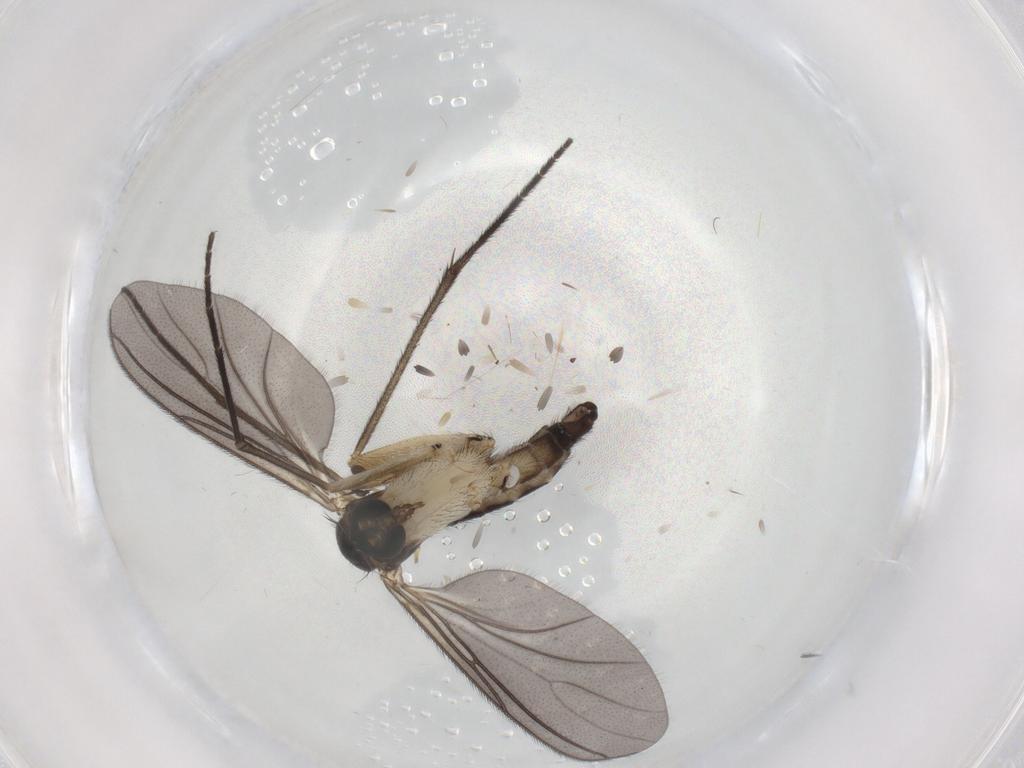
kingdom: Animalia
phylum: Arthropoda
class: Insecta
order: Diptera
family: Sciaridae
